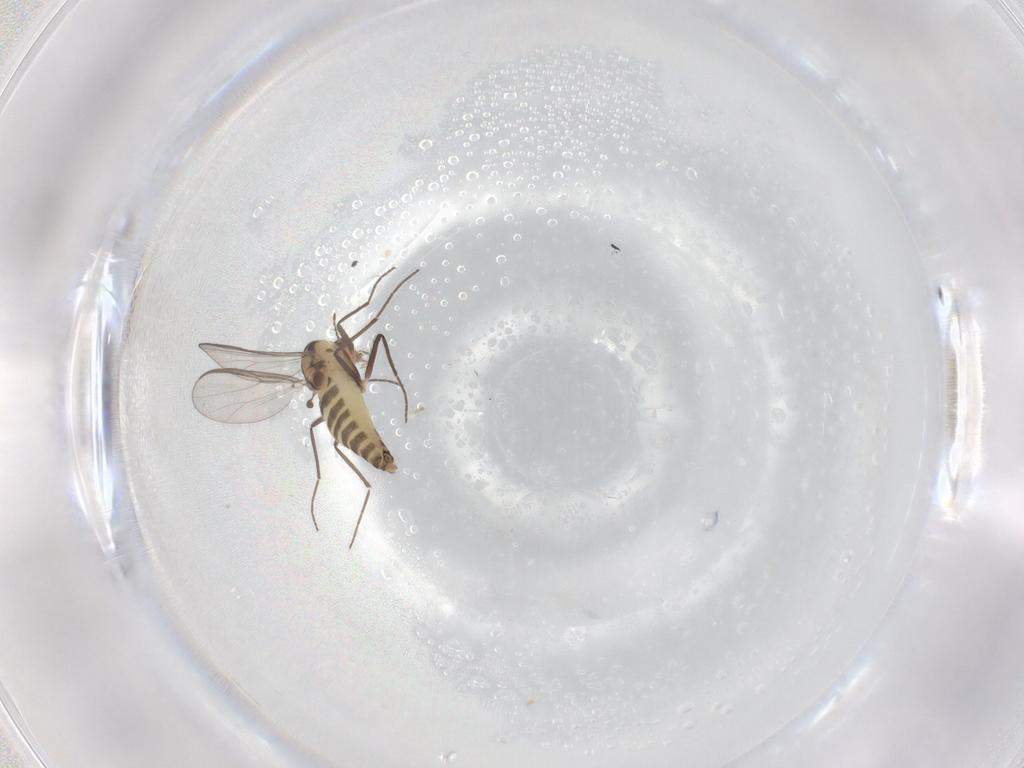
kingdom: Animalia
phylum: Arthropoda
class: Insecta
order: Diptera
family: Chironomidae
